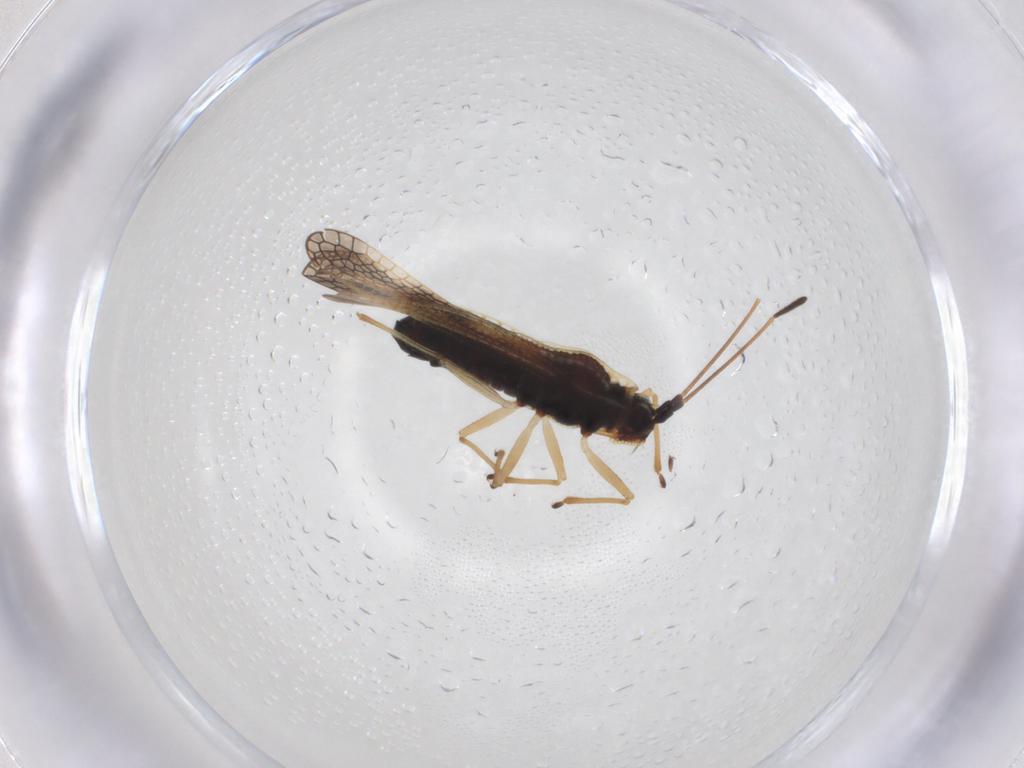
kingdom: Animalia
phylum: Arthropoda
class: Insecta
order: Hemiptera
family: Tingidae
